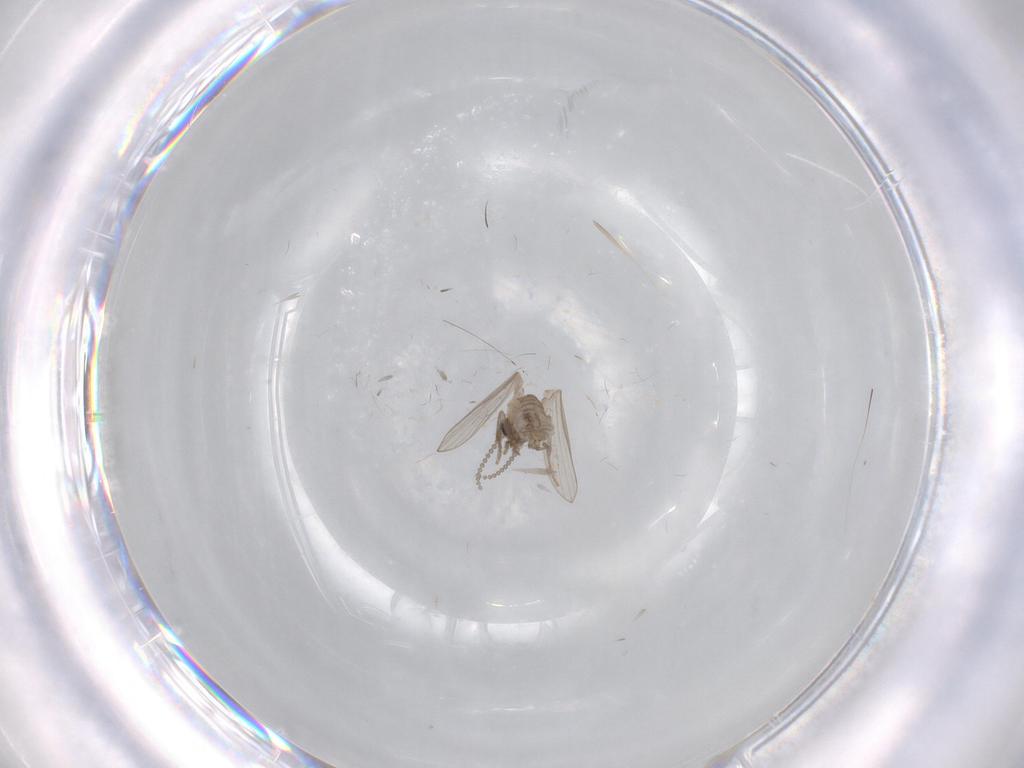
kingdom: Animalia
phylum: Arthropoda
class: Insecta
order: Diptera
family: Psychodidae
